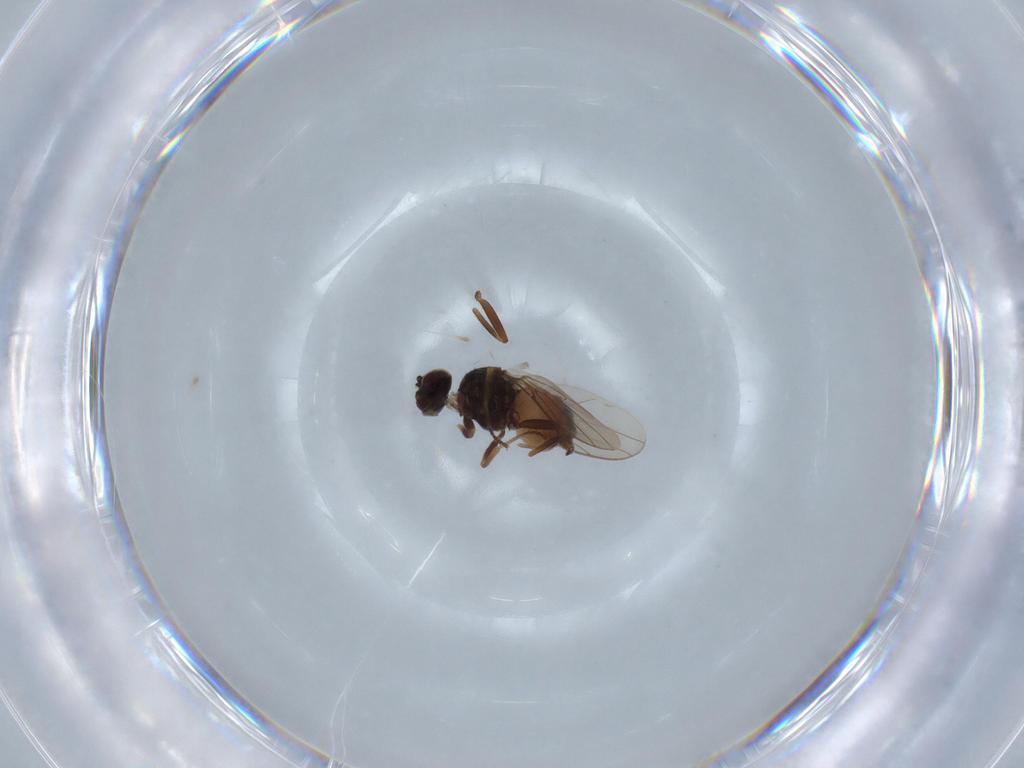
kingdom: Animalia
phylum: Arthropoda
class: Insecta
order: Diptera
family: Chloropidae
